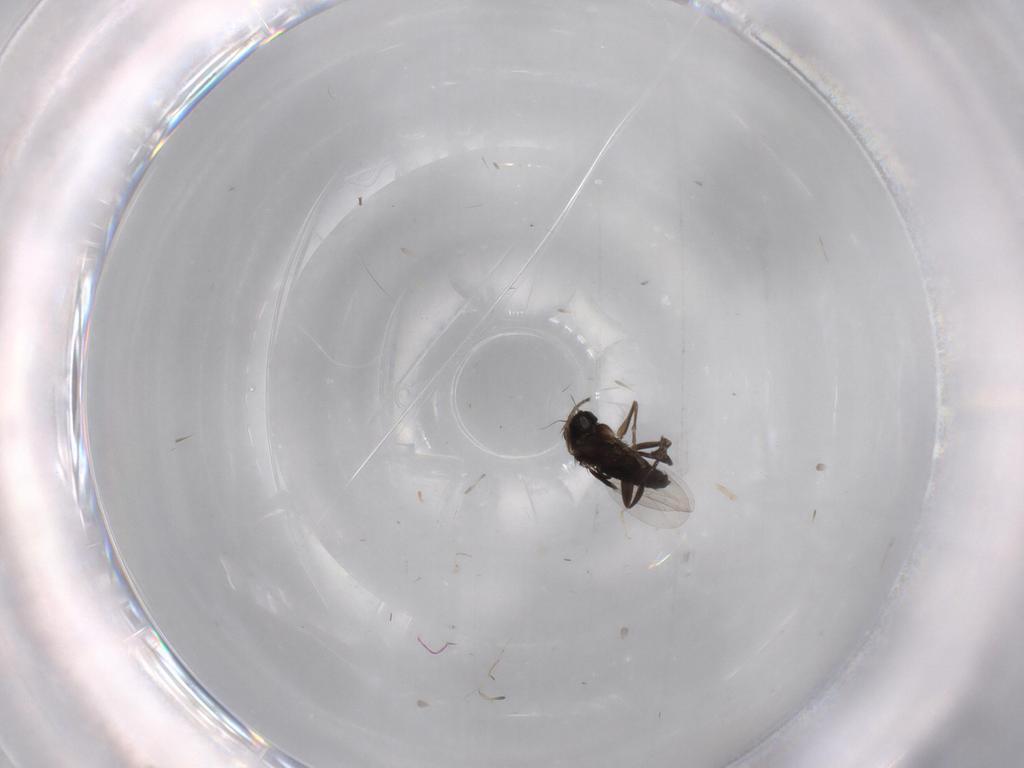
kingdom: Animalia
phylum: Arthropoda
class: Insecta
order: Diptera
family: Phoridae
